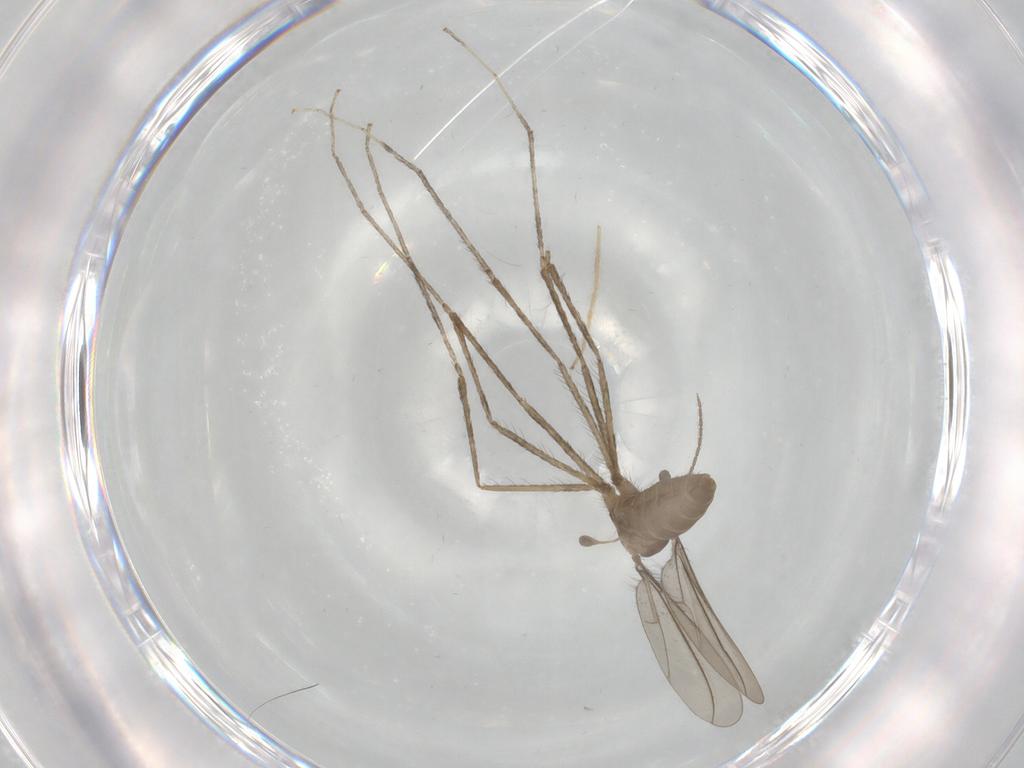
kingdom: Animalia
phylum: Arthropoda
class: Insecta
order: Diptera
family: Cecidomyiidae
